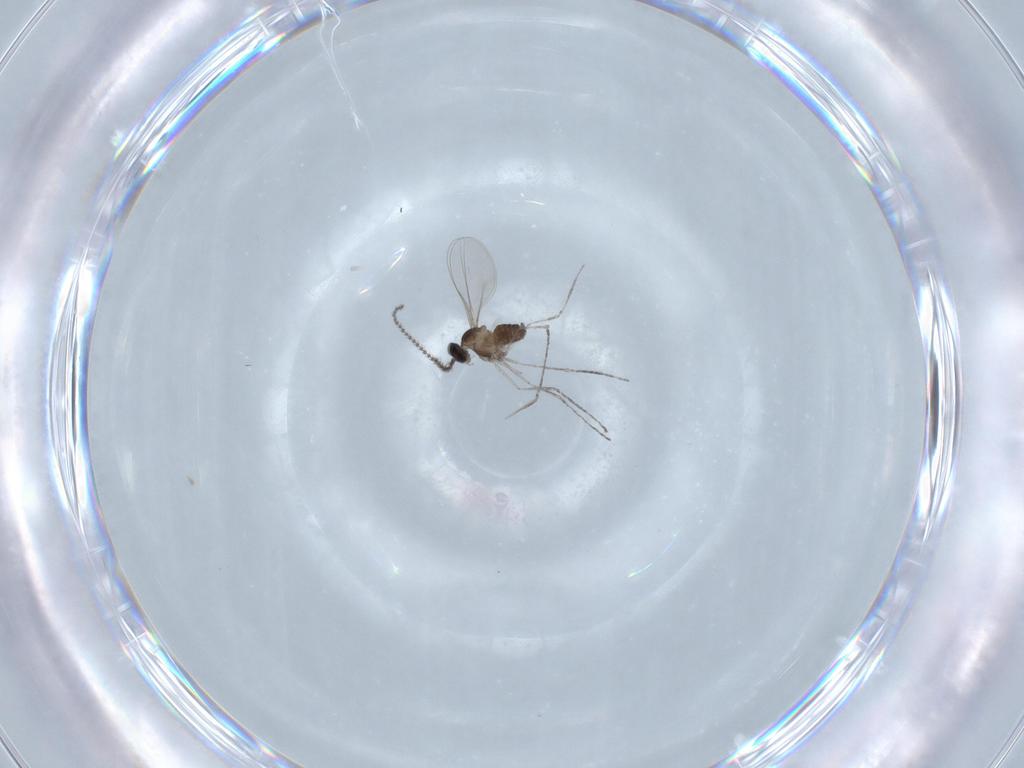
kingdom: Animalia
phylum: Arthropoda
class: Insecta
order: Diptera
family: Cecidomyiidae
